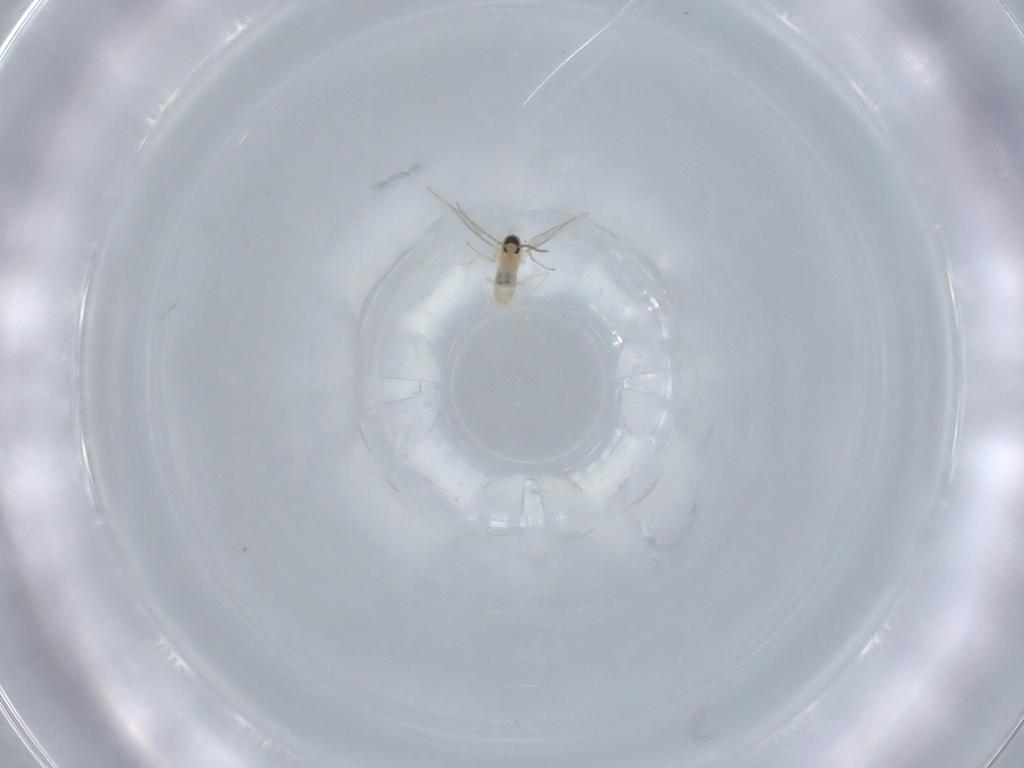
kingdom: Animalia
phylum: Arthropoda
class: Insecta
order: Diptera
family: Cecidomyiidae
